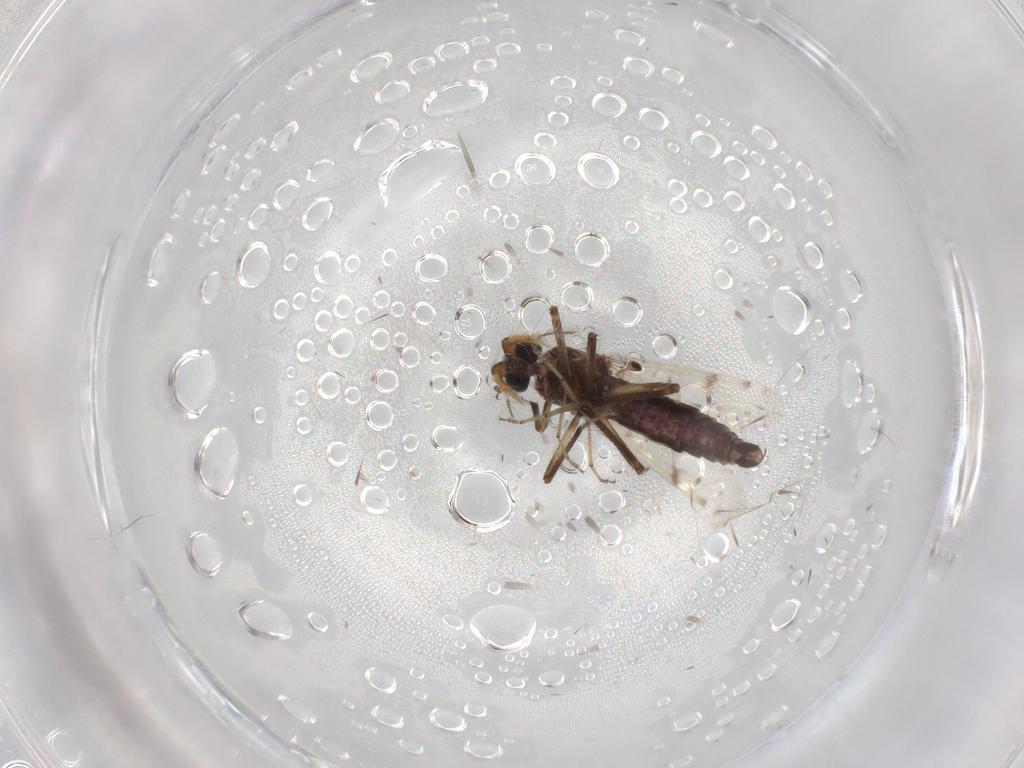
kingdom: Animalia
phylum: Arthropoda
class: Insecta
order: Diptera
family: Ceratopogonidae
